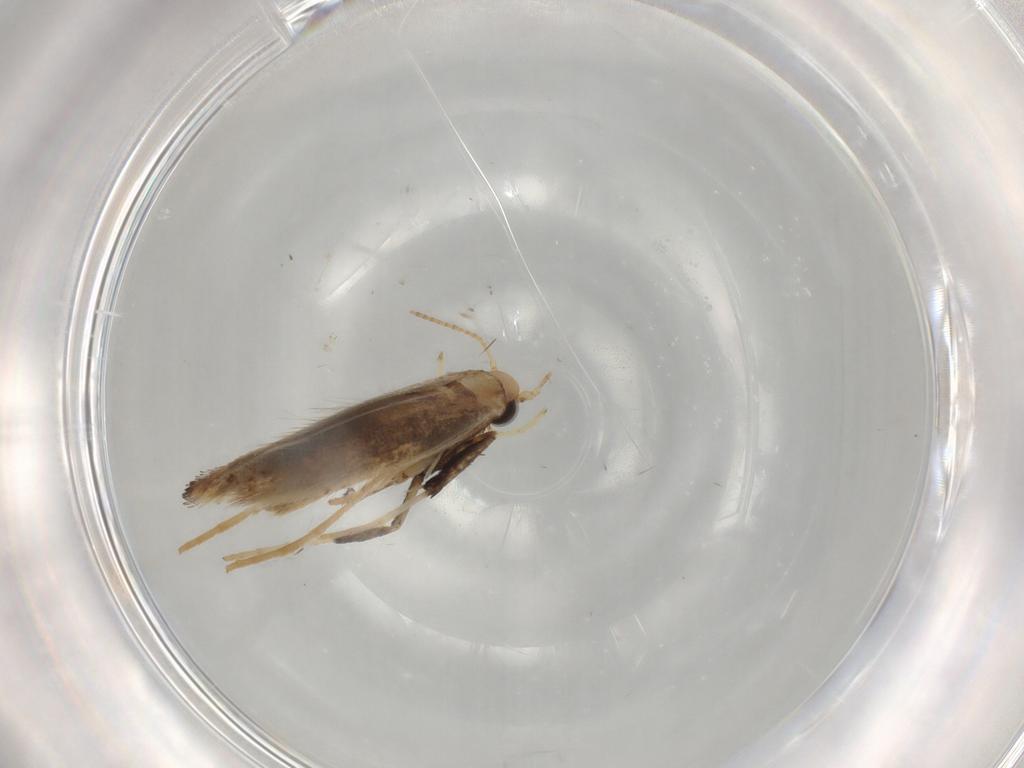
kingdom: Animalia
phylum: Arthropoda
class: Insecta
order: Lepidoptera
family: Gracillariidae
